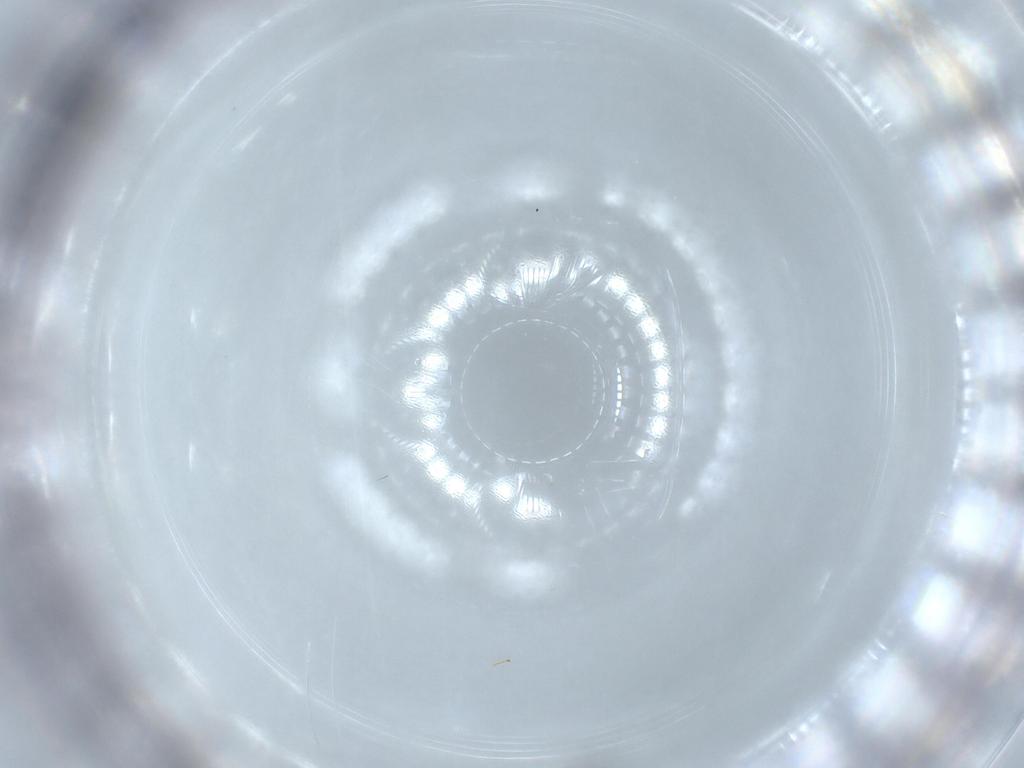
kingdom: Animalia
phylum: Arthropoda
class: Insecta
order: Hymenoptera
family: Mymaridae
